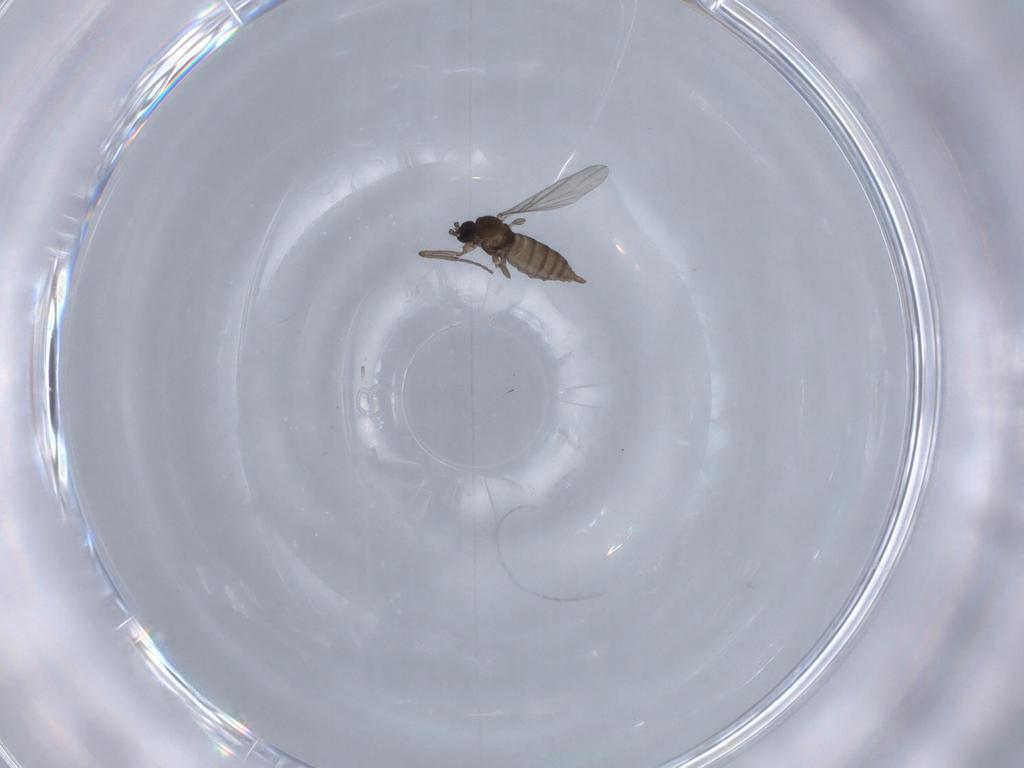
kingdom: Animalia
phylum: Arthropoda
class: Insecta
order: Diptera
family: Sciaridae
